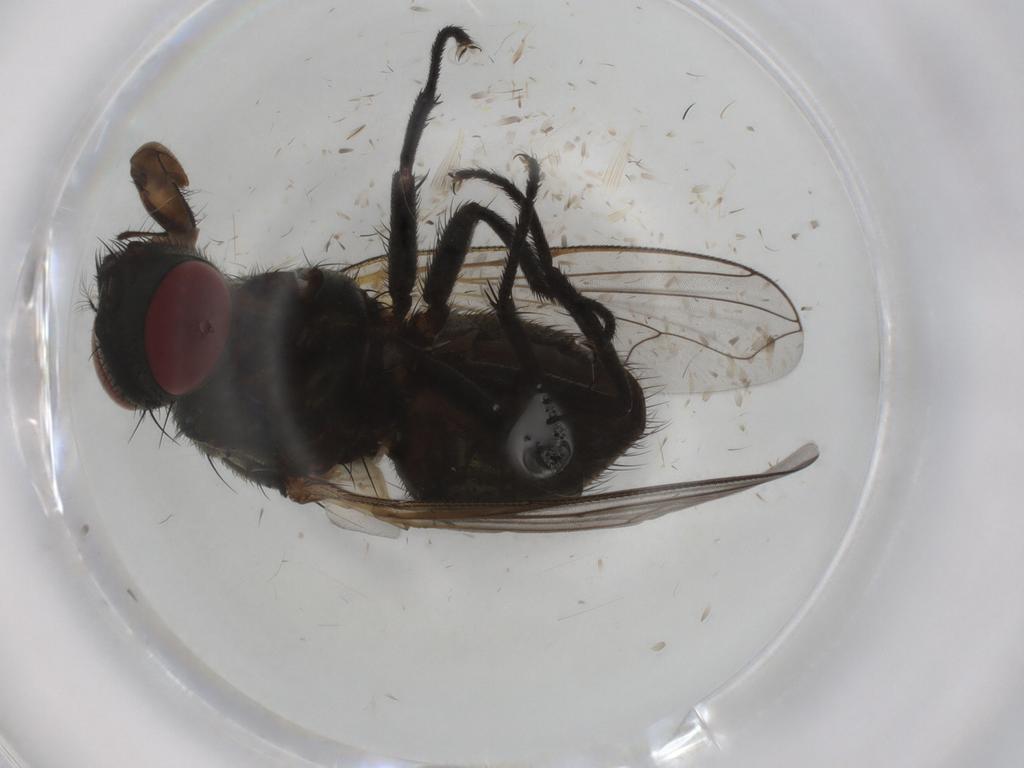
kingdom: Animalia
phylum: Arthropoda
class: Insecta
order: Diptera
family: Muscidae
